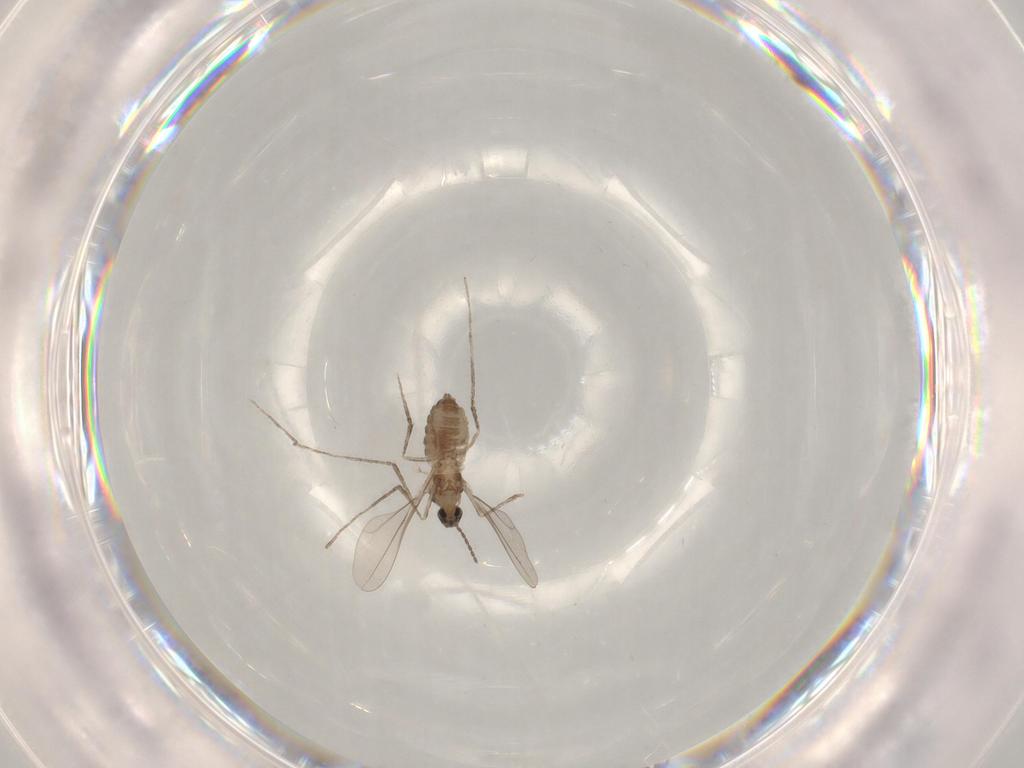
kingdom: Animalia
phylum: Arthropoda
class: Insecta
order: Diptera
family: Cecidomyiidae
